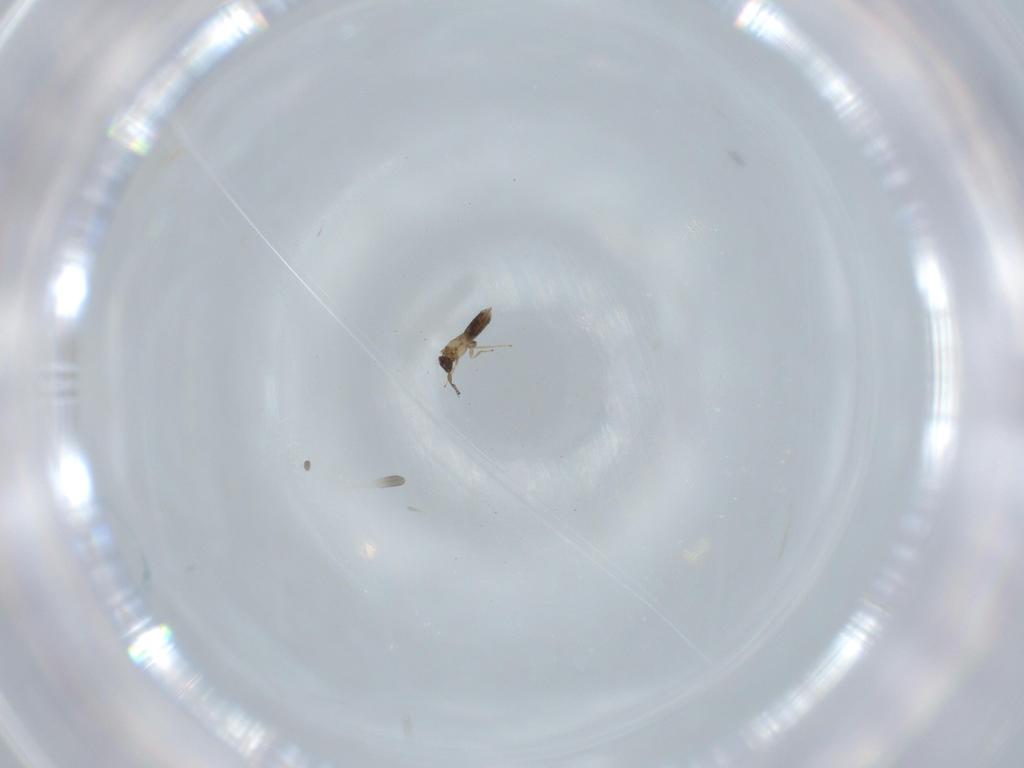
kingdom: Animalia
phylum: Arthropoda
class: Insecta
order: Hymenoptera
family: Mymaridae
